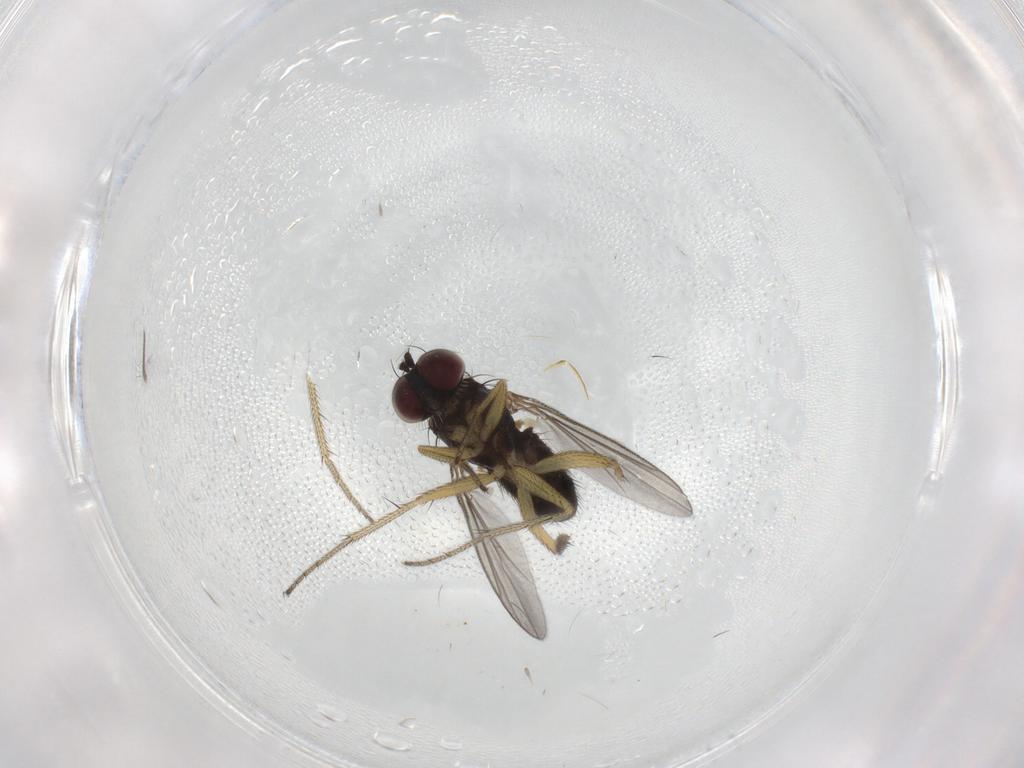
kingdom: Animalia
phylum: Arthropoda
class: Insecta
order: Diptera
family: Dolichopodidae
